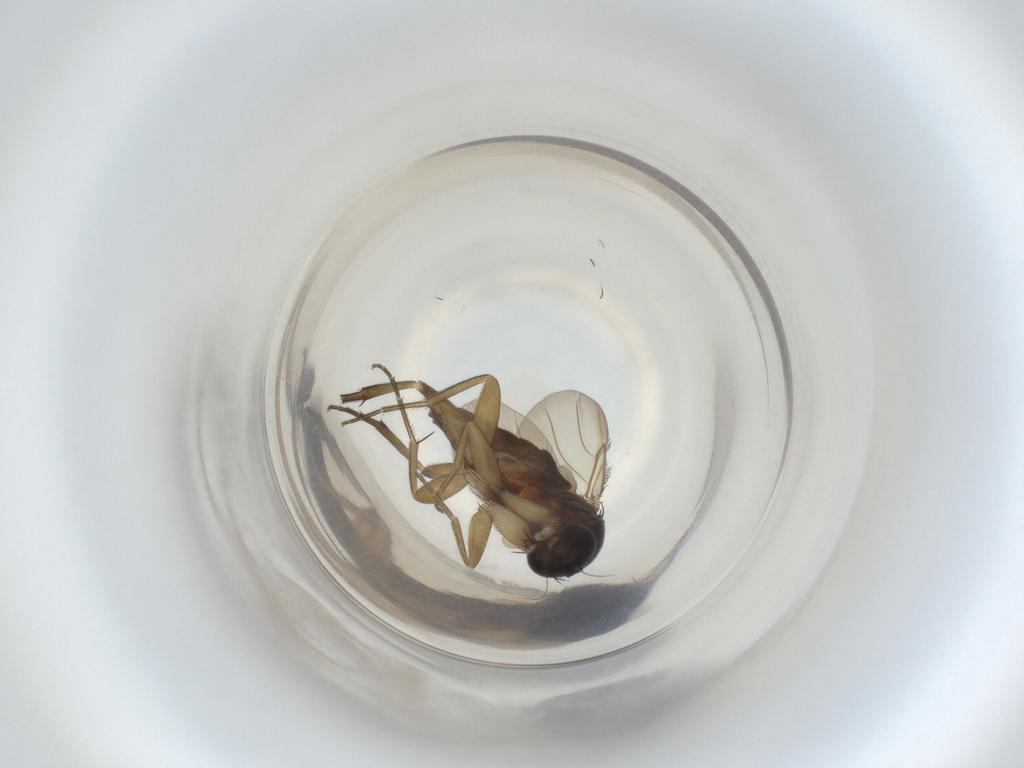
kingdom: Animalia
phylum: Arthropoda
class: Insecta
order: Diptera
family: Phoridae
